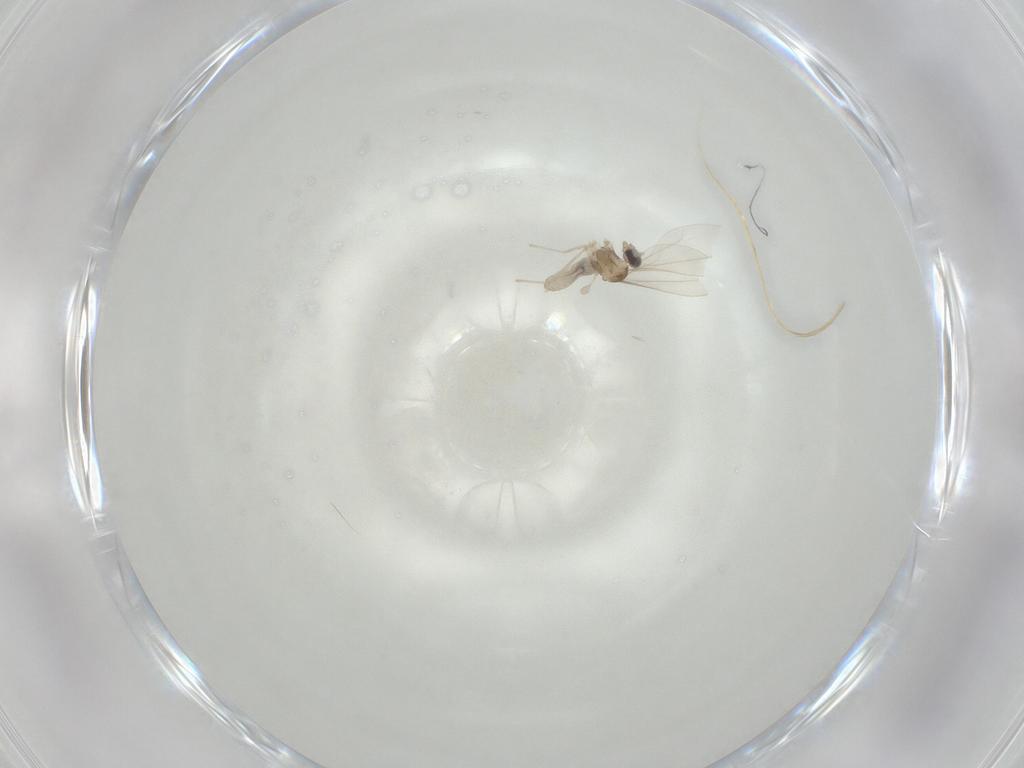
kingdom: Animalia
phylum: Arthropoda
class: Insecta
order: Diptera
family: Cecidomyiidae
